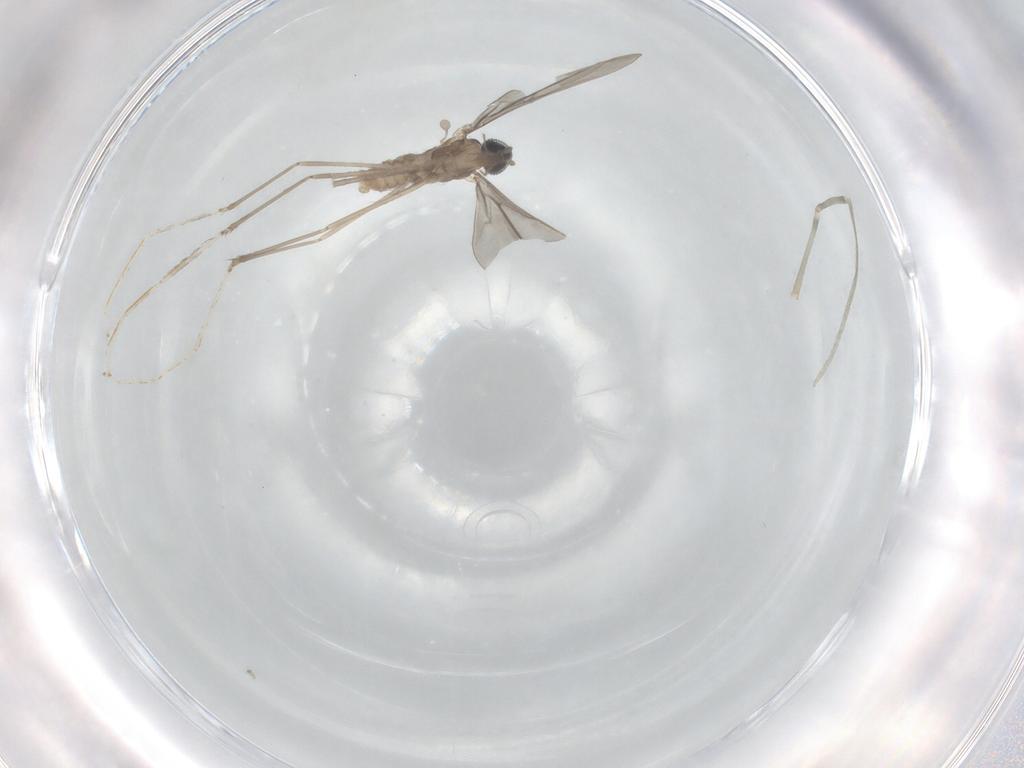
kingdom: Animalia
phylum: Arthropoda
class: Insecta
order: Diptera
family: Cecidomyiidae
